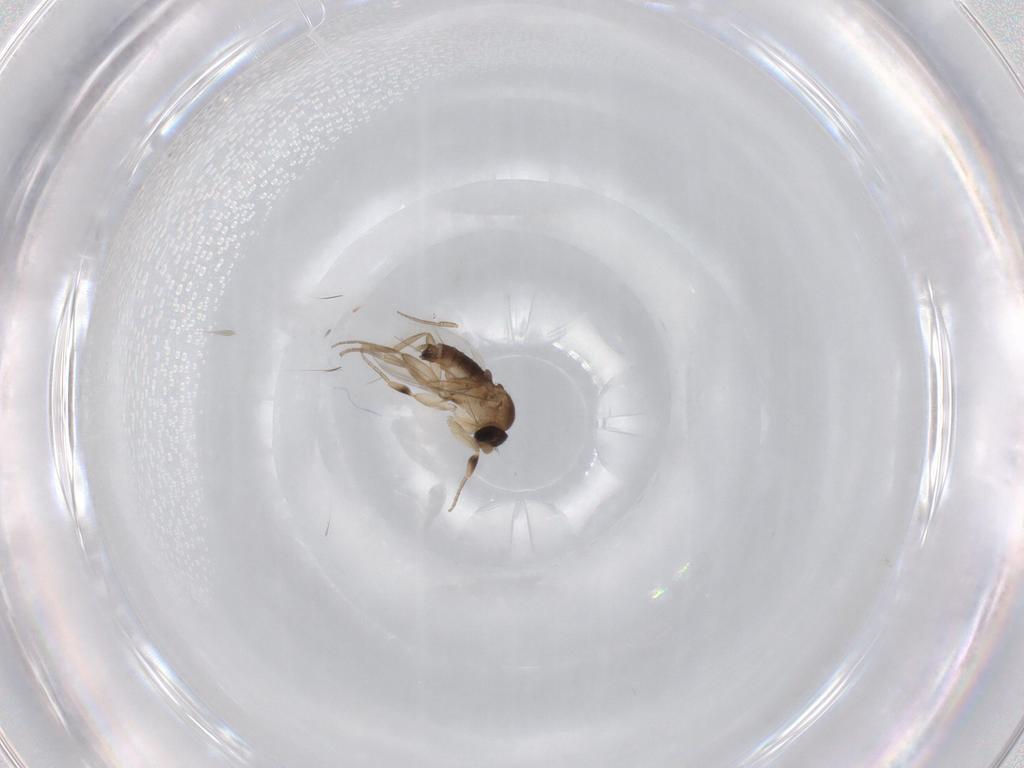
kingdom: Animalia
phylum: Arthropoda
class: Insecta
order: Diptera
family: Phoridae
